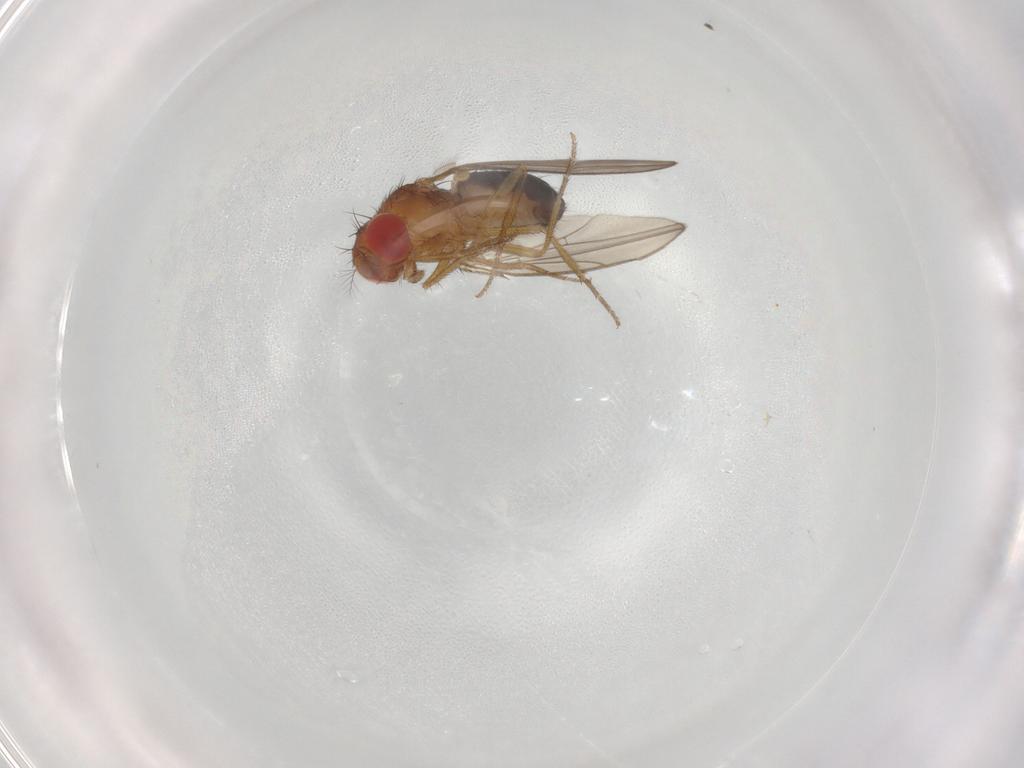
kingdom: Animalia
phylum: Arthropoda
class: Insecta
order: Diptera
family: Drosophilidae
